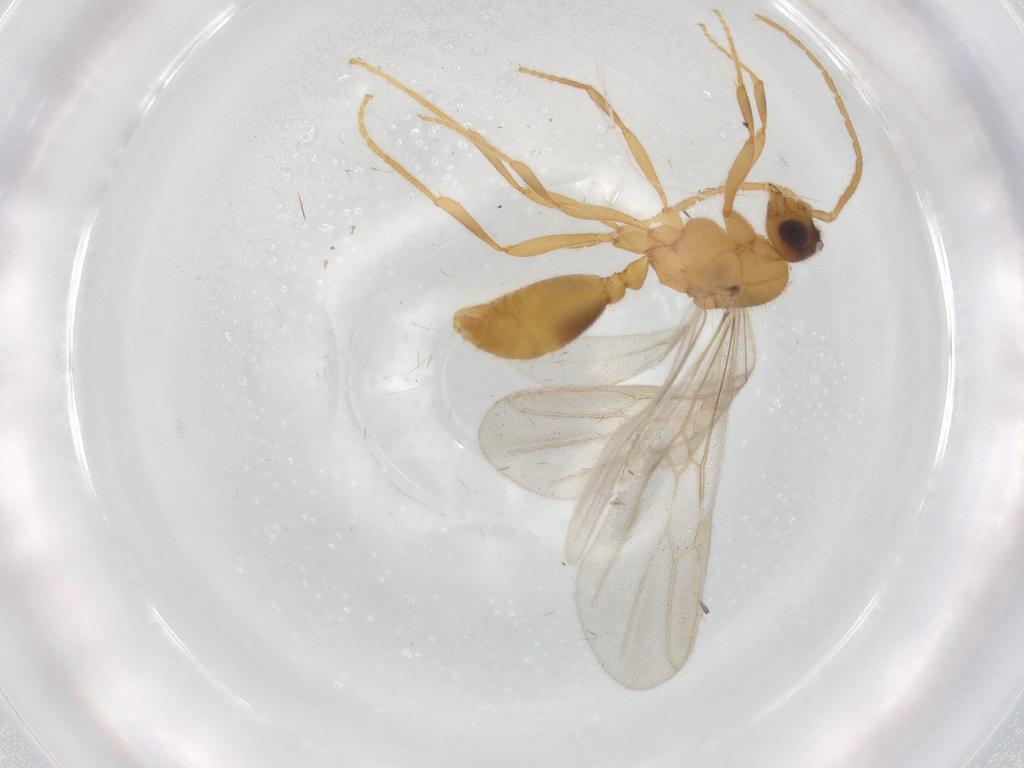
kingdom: Animalia
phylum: Arthropoda
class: Insecta
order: Hymenoptera
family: Formicidae
